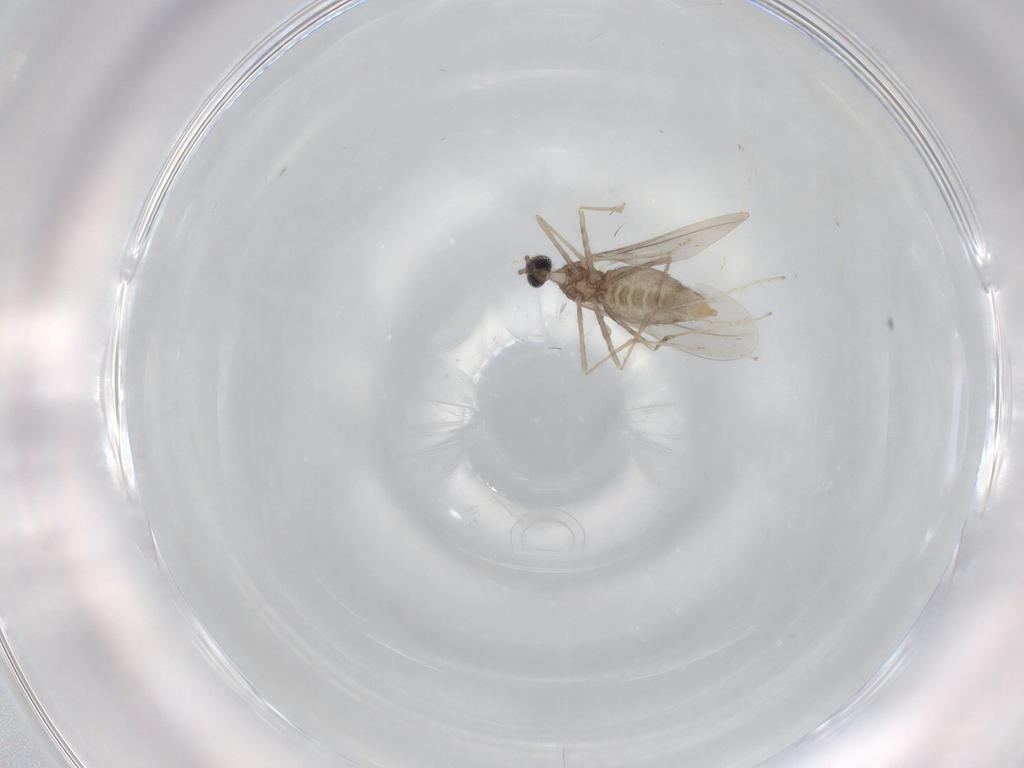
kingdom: Animalia
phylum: Arthropoda
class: Insecta
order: Diptera
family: Cecidomyiidae
